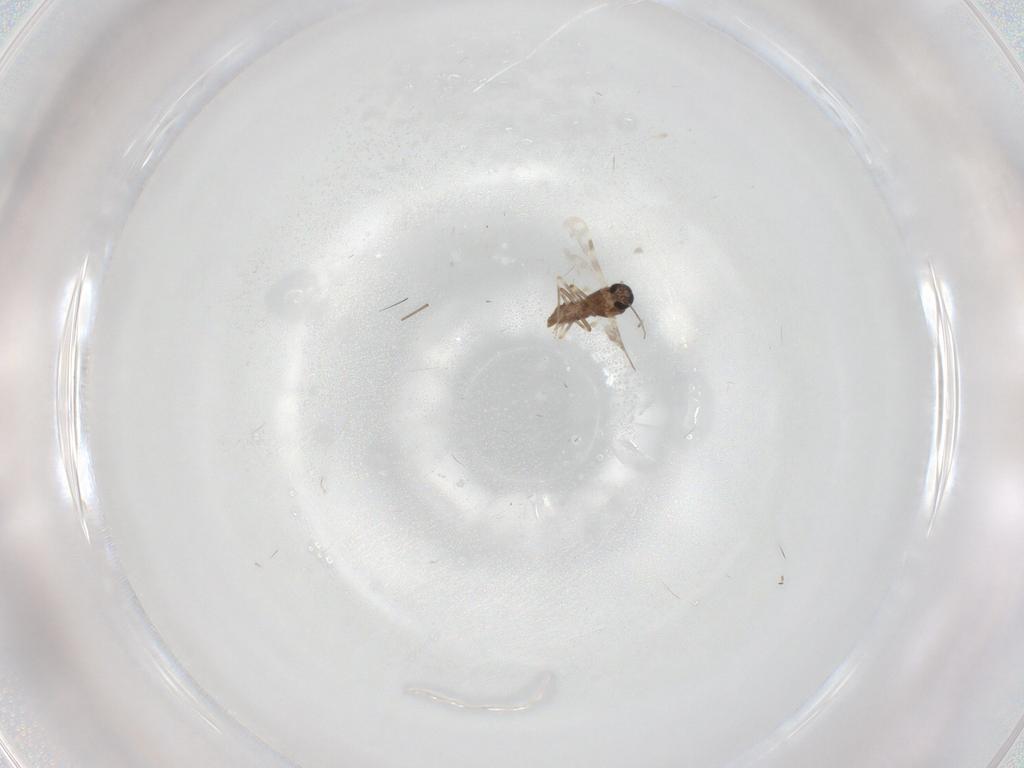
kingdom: Animalia
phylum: Arthropoda
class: Insecta
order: Diptera
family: Ceratopogonidae
